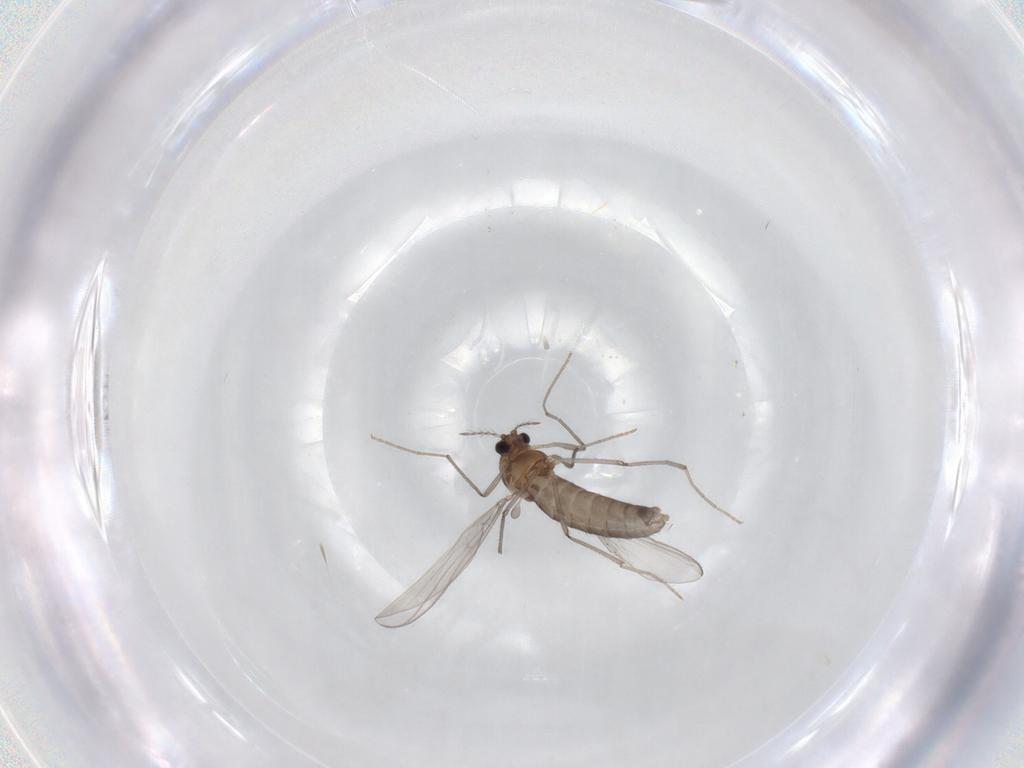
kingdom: Animalia
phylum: Arthropoda
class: Insecta
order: Diptera
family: Chironomidae
